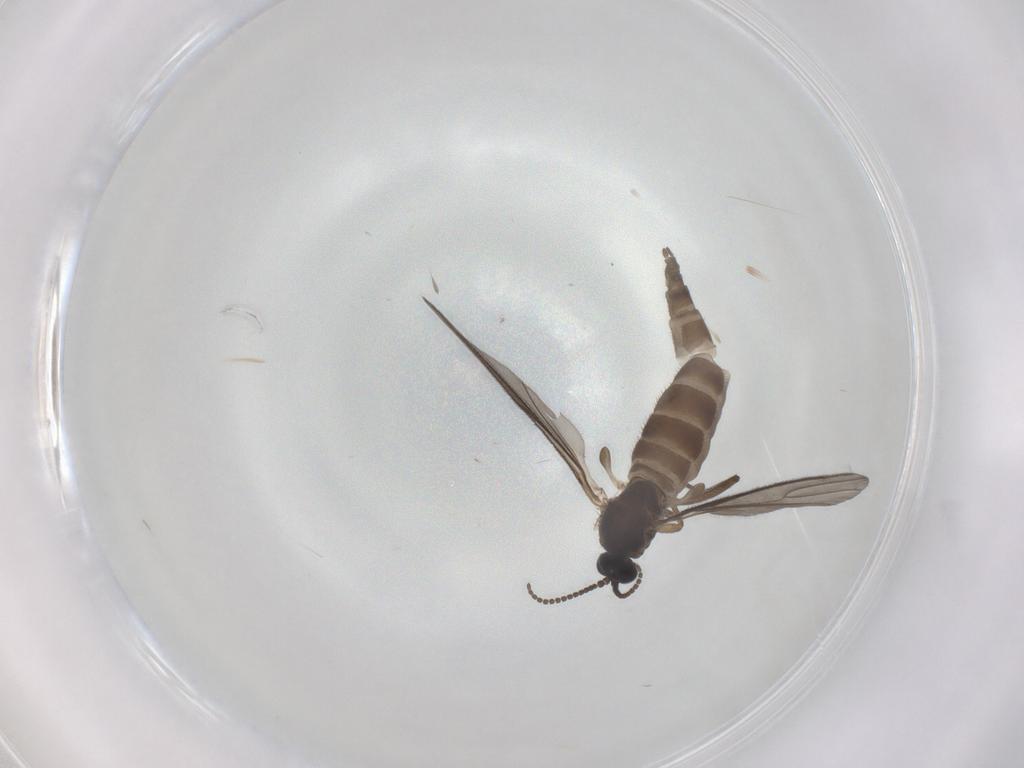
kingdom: Animalia
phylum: Arthropoda
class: Insecta
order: Diptera
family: Sciaridae
